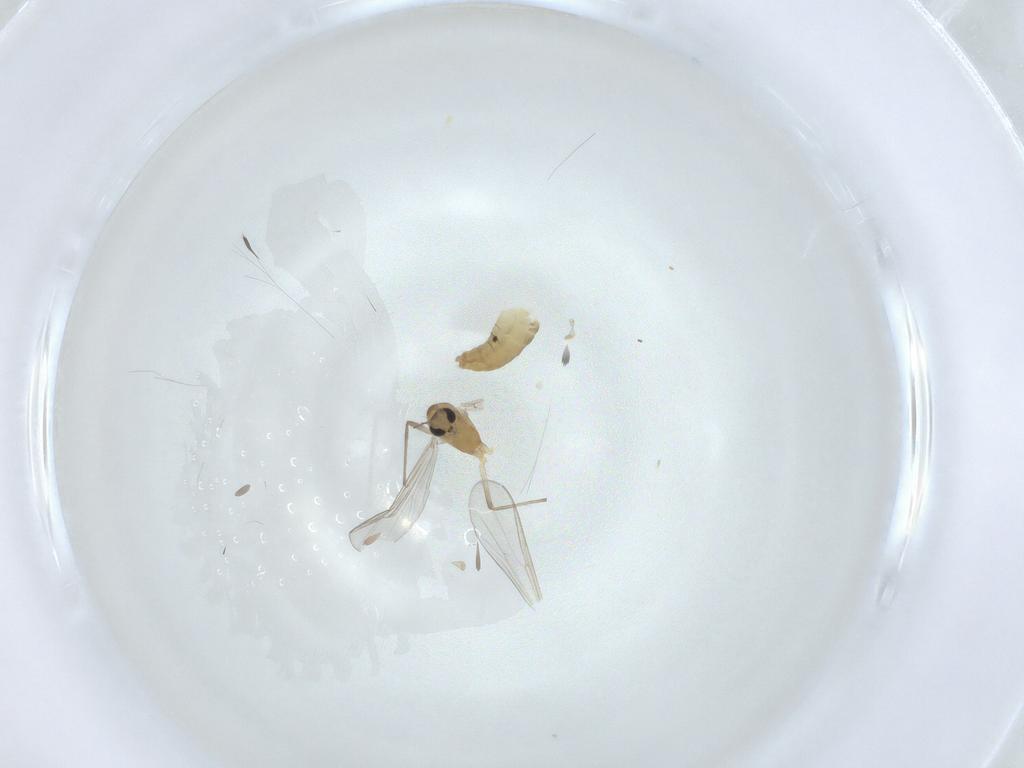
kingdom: Animalia
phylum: Arthropoda
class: Insecta
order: Diptera
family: Chironomidae
